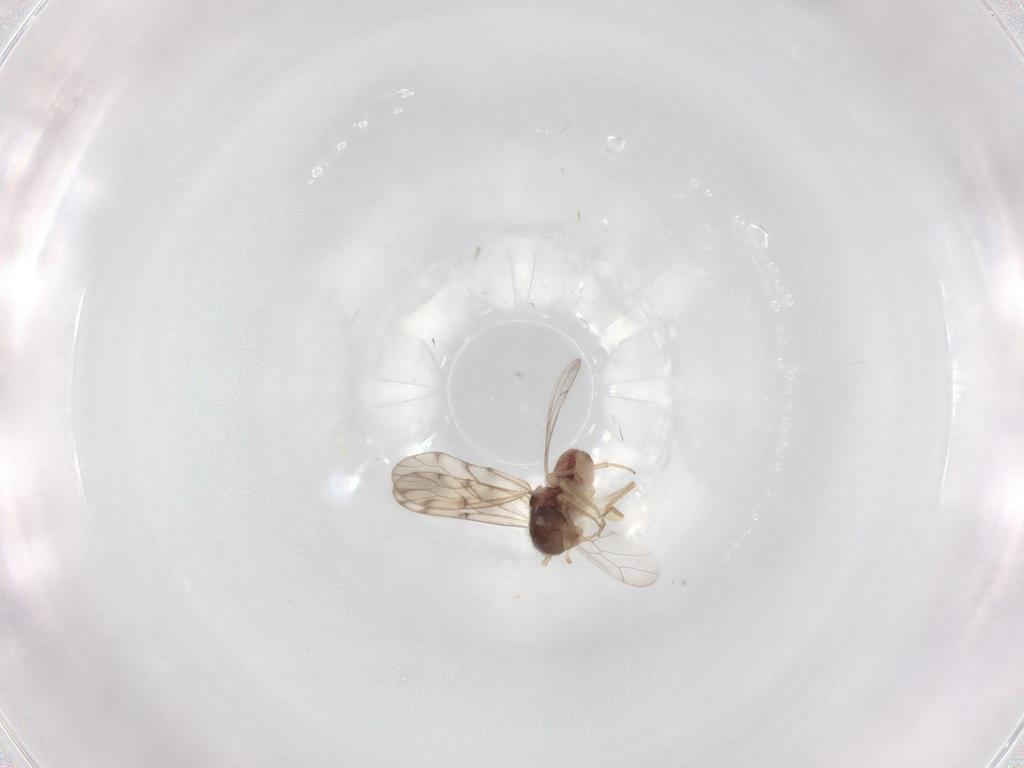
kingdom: Animalia
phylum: Arthropoda
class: Insecta
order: Psocodea
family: Peripsocidae
